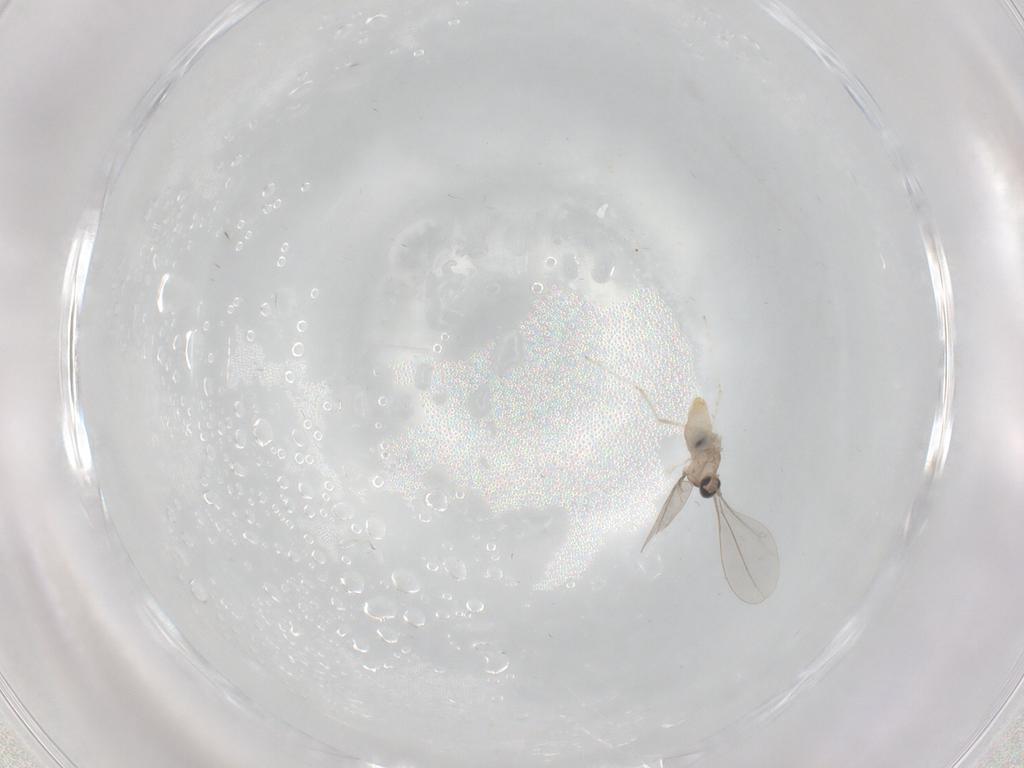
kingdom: Animalia
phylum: Arthropoda
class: Insecta
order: Diptera
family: Cecidomyiidae
